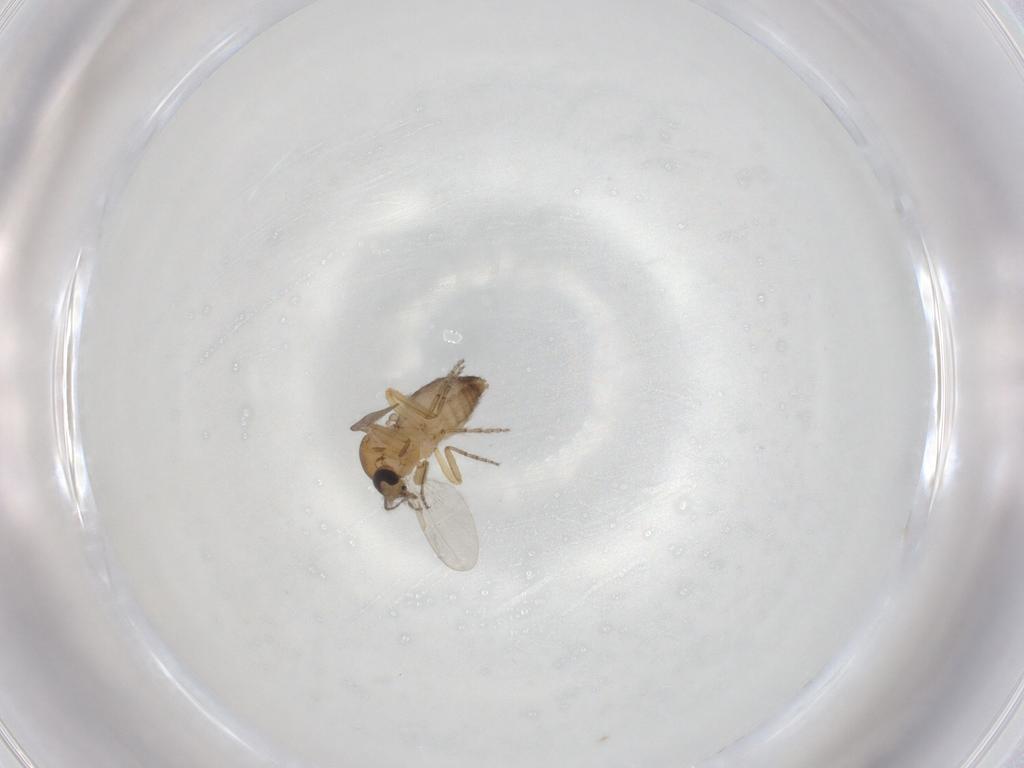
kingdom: Animalia
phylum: Arthropoda
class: Insecta
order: Diptera
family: Ceratopogonidae
